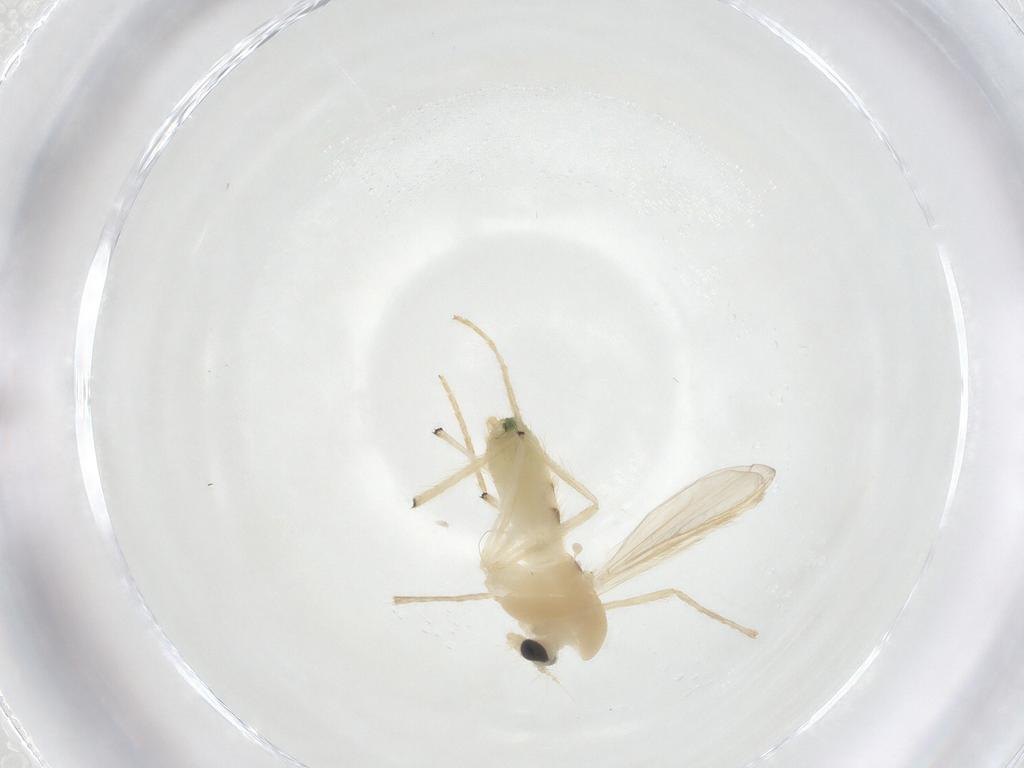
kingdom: Animalia
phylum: Arthropoda
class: Insecta
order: Diptera
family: Chironomidae
